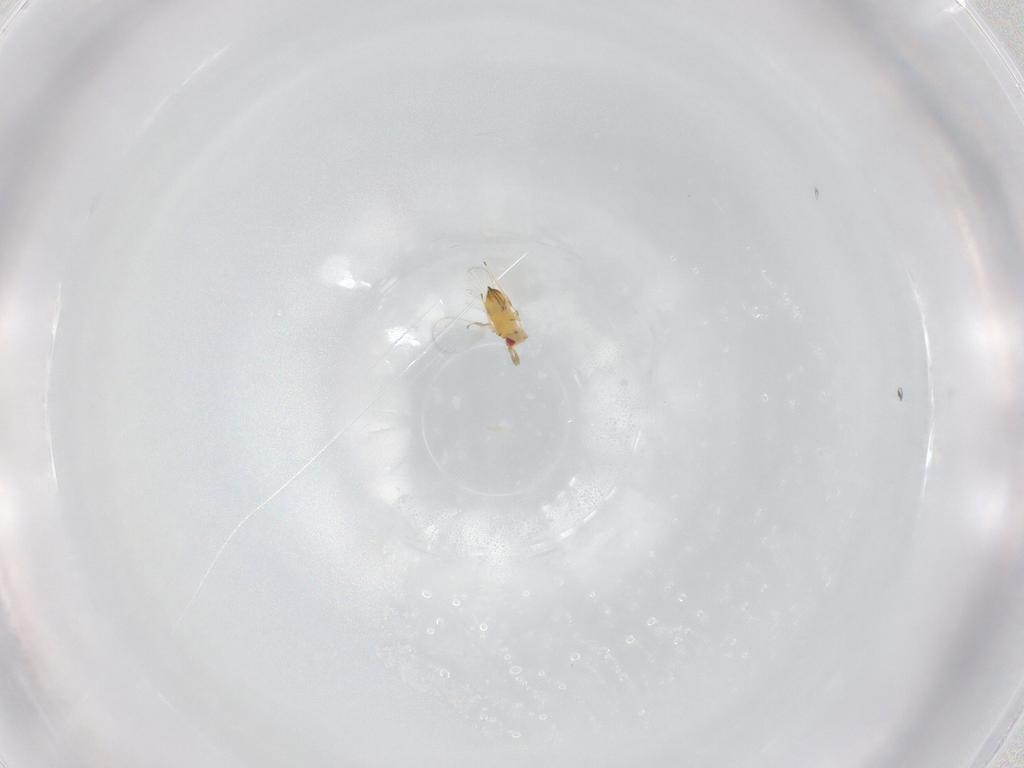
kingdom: Animalia
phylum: Arthropoda
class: Insecta
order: Hymenoptera
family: Trichogrammatidae
